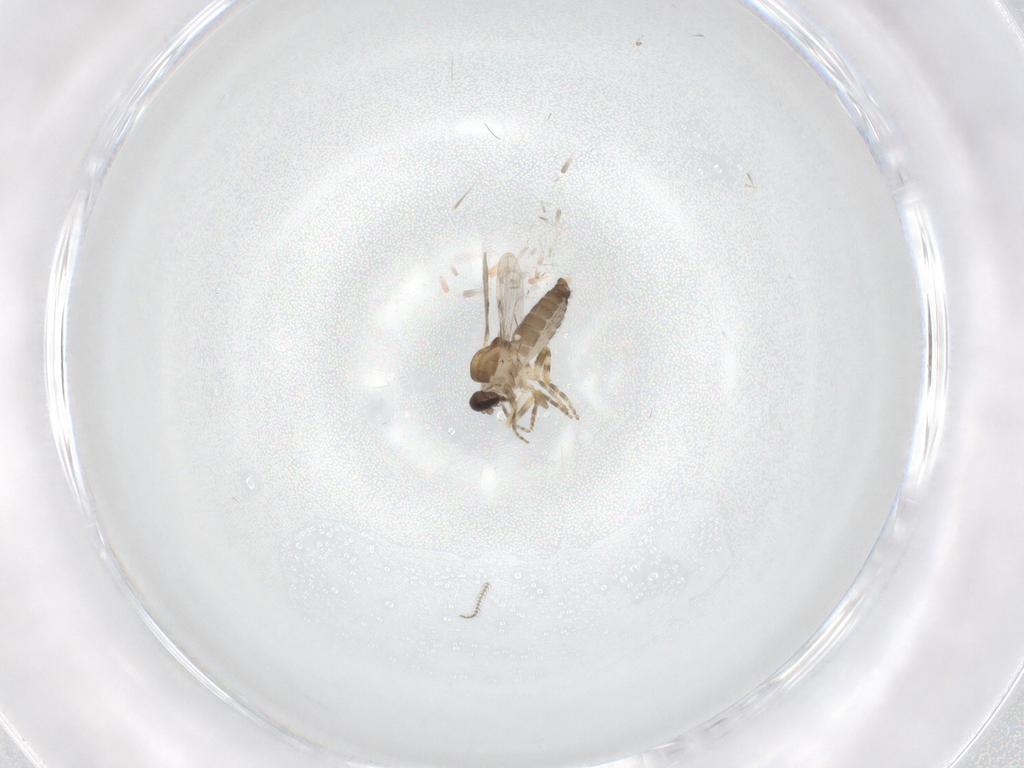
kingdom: Animalia
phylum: Arthropoda
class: Insecta
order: Diptera
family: Ceratopogonidae
